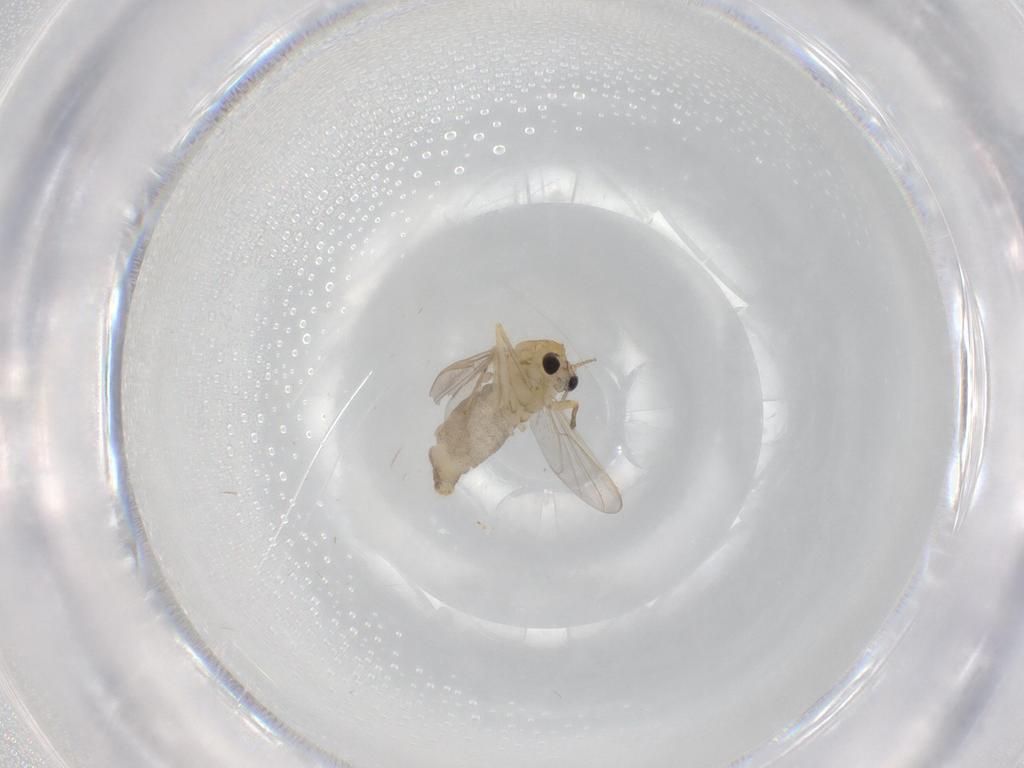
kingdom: Animalia
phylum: Arthropoda
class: Insecta
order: Diptera
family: Chironomidae
